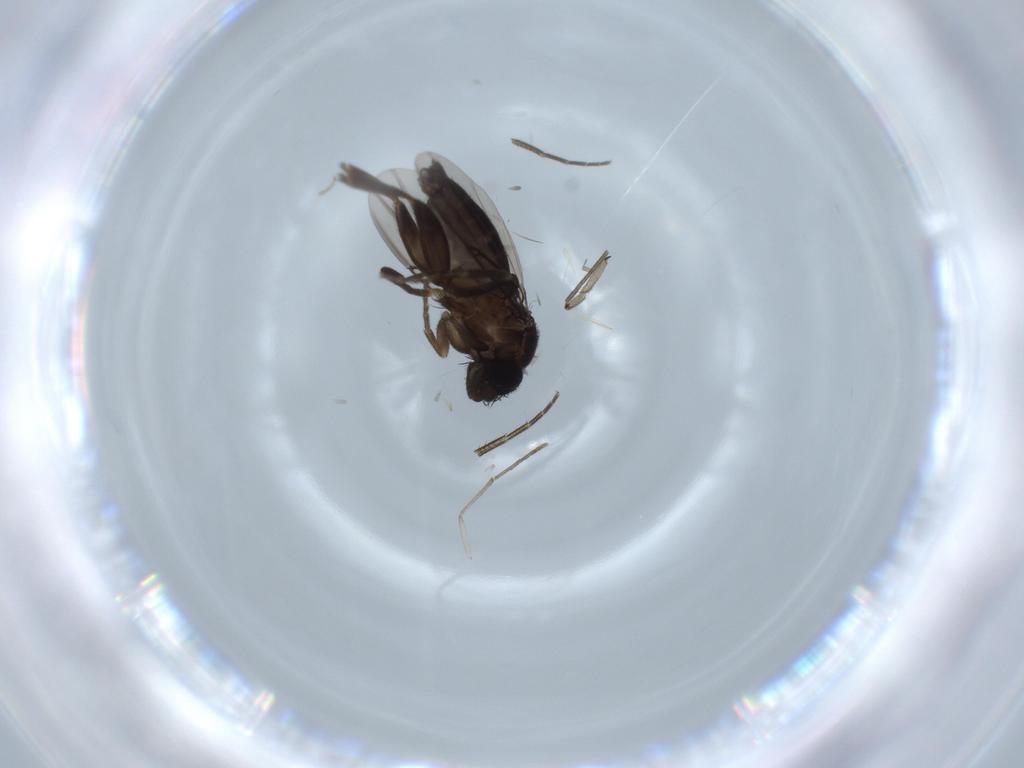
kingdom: Animalia
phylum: Arthropoda
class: Insecta
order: Diptera
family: Phoridae
